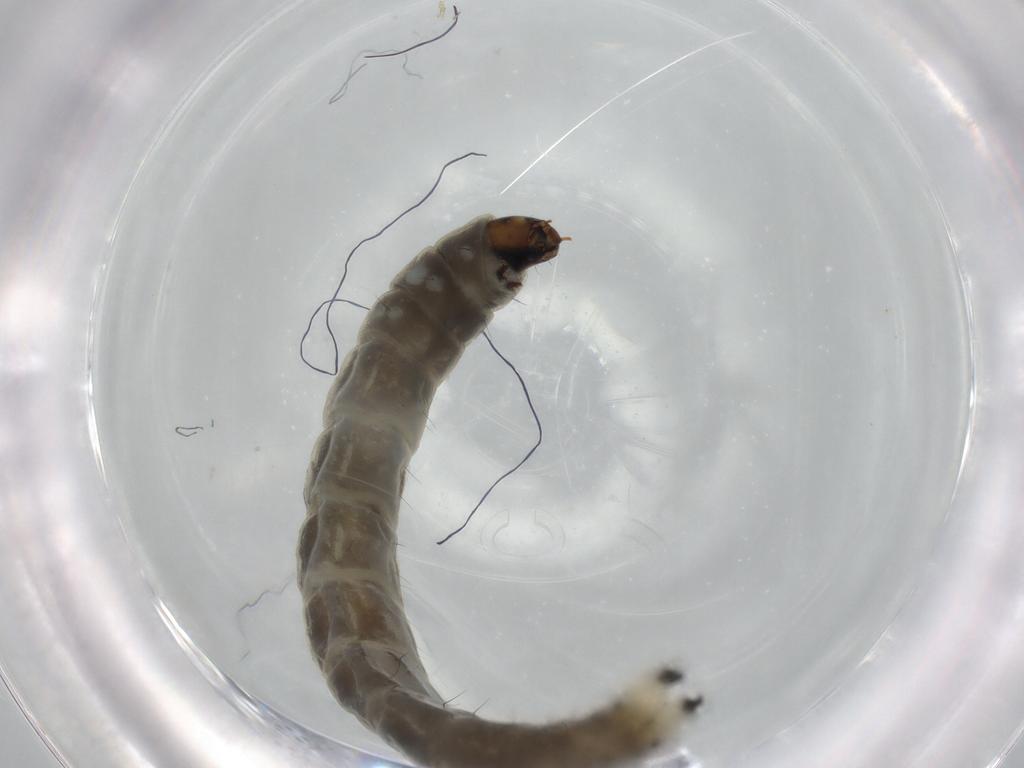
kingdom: Animalia
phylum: Arthropoda
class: Insecta
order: Diptera
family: Chironomidae
